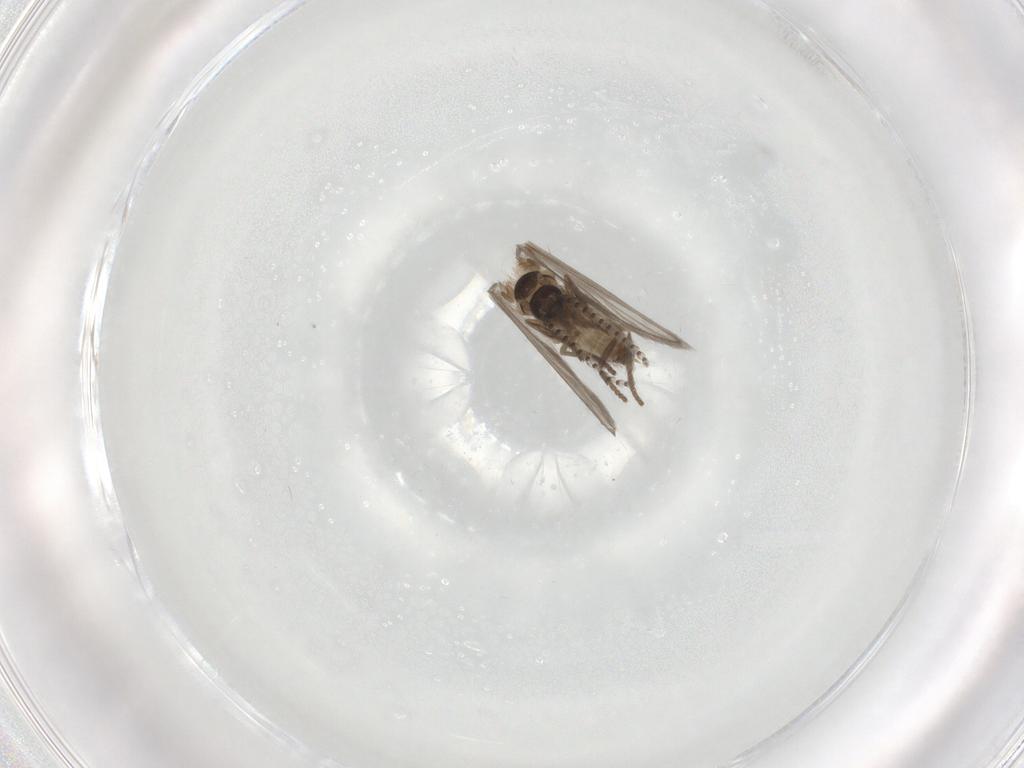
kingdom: Animalia
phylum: Arthropoda
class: Insecta
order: Diptera
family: Psychodidae
